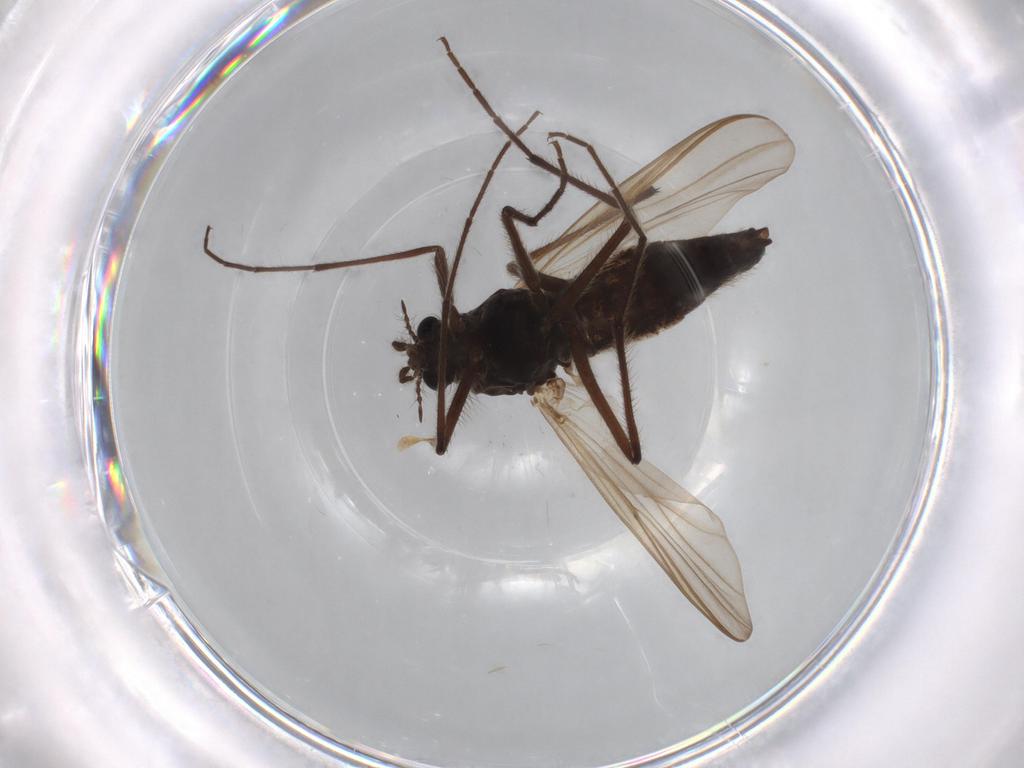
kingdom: Animalia
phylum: Arthropoda
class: Insecta
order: Diptera
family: Sphaeroceridae
